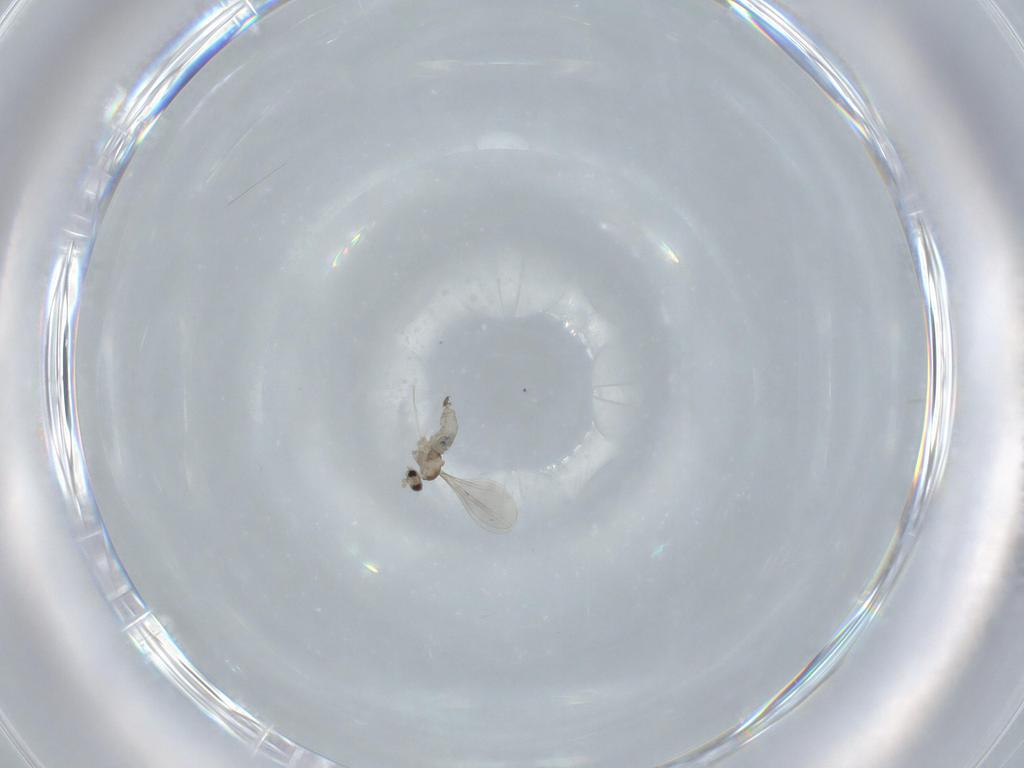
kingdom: Animalia
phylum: Arthropoda
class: Insecta
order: Diptera
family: Cecidomyiidae
